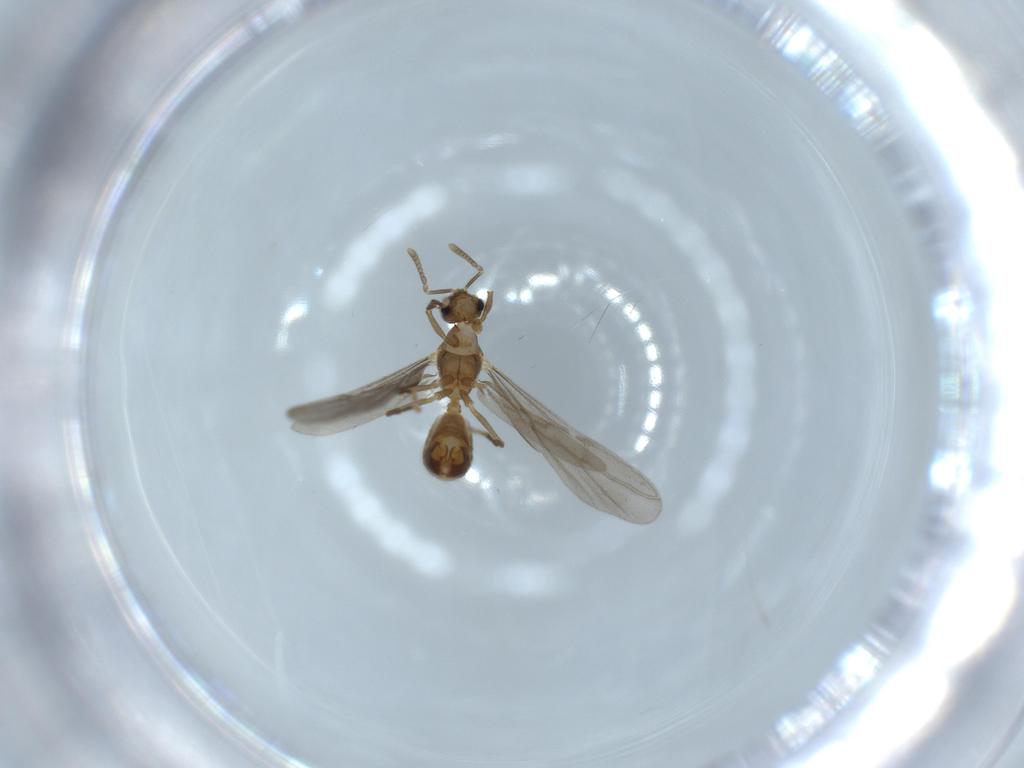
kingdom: Animalia
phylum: Arthropoda
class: Insecta
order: Hymenoptera
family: Formicidae
